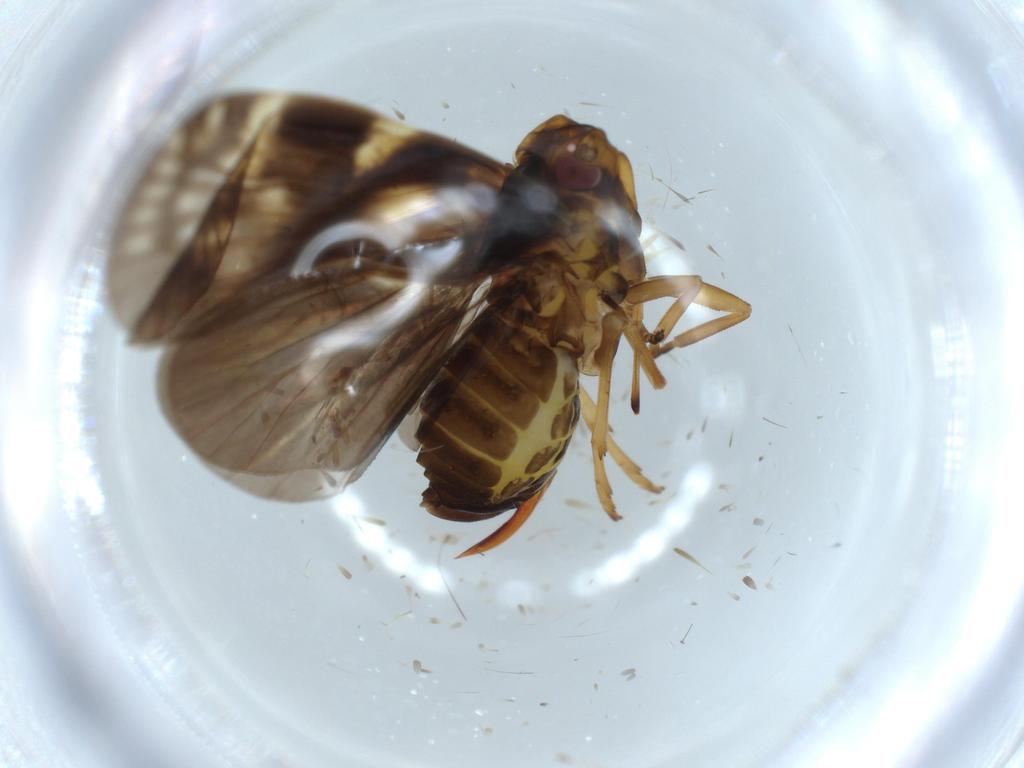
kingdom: Animalia
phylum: Arthropoda
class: Insecta
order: Hemiptera
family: Cixiidae
